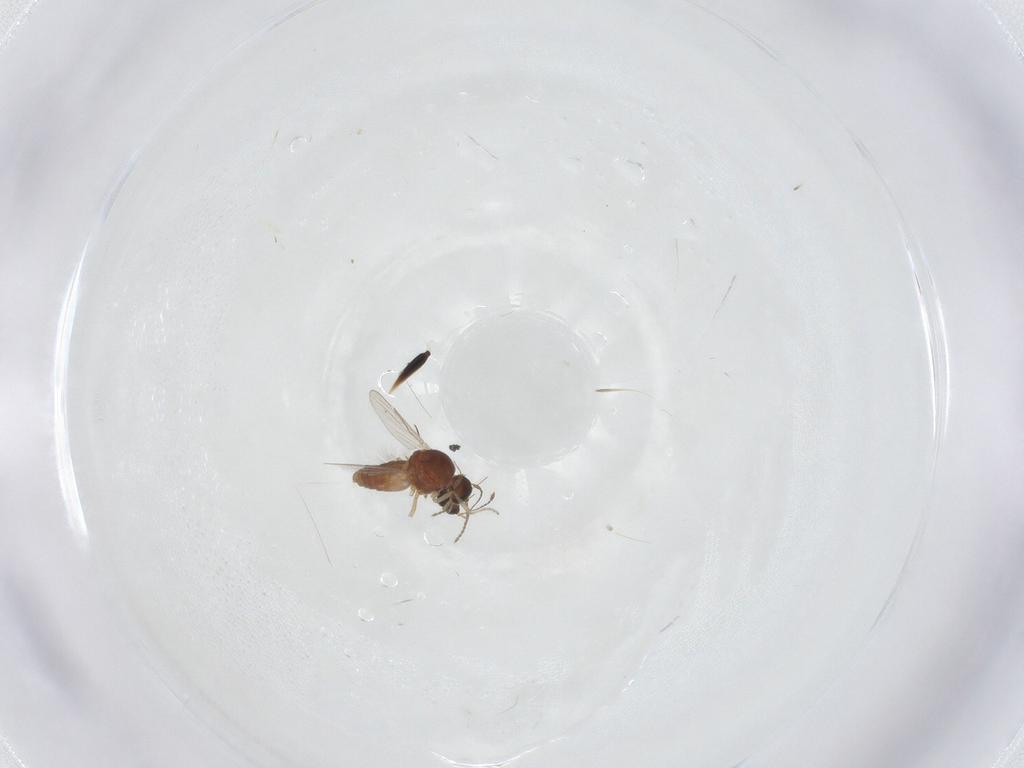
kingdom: Animalia
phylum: Arthropoda
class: Insecta
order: Diptera
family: Ceratopogonidae
